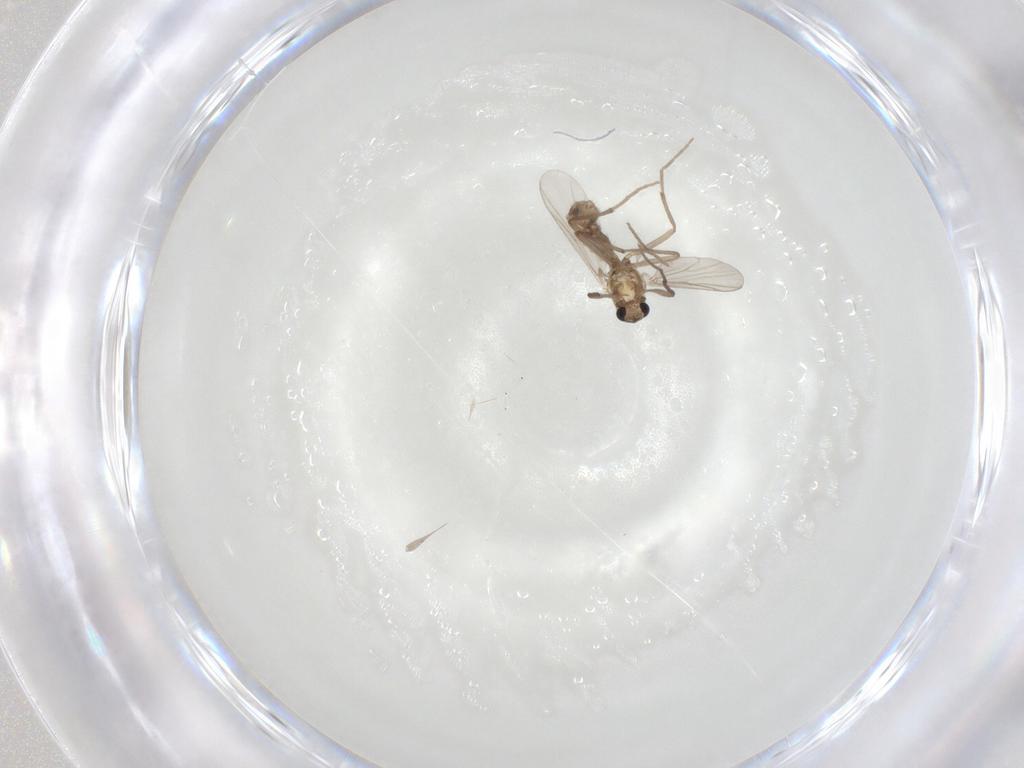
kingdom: Animalia
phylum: Arthropoda
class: Insecta
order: Diptera
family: Chironomidae
